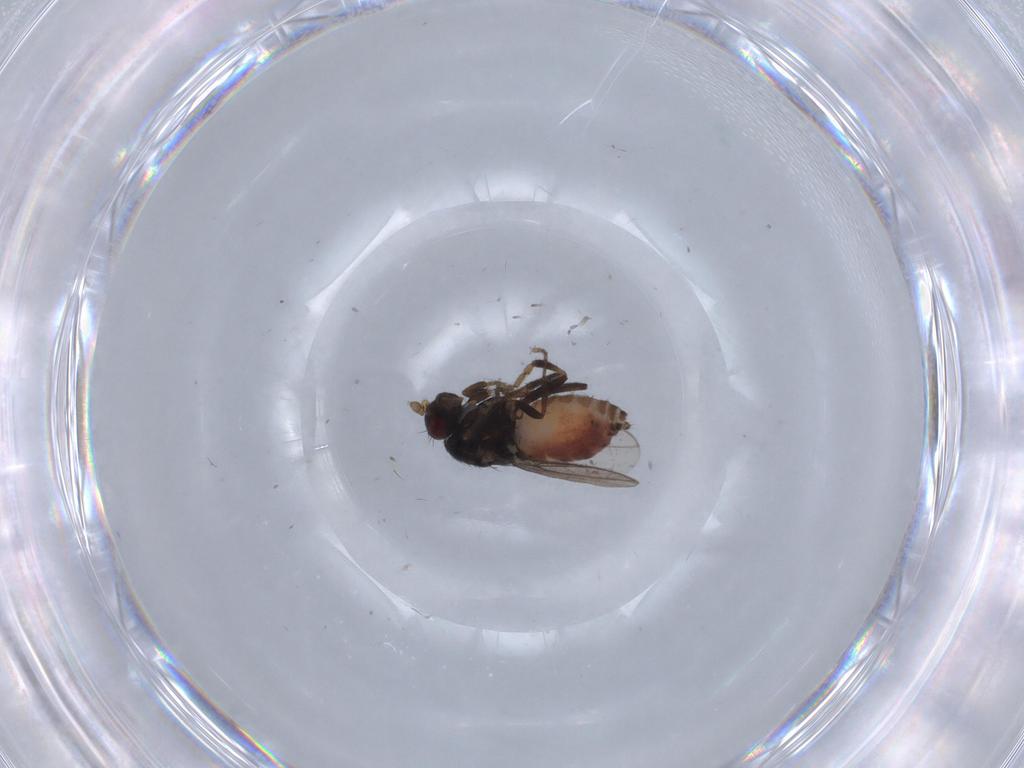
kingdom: Animalia
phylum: Arthropoda
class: Insecta
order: Diptera
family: Sphaeroceridae
